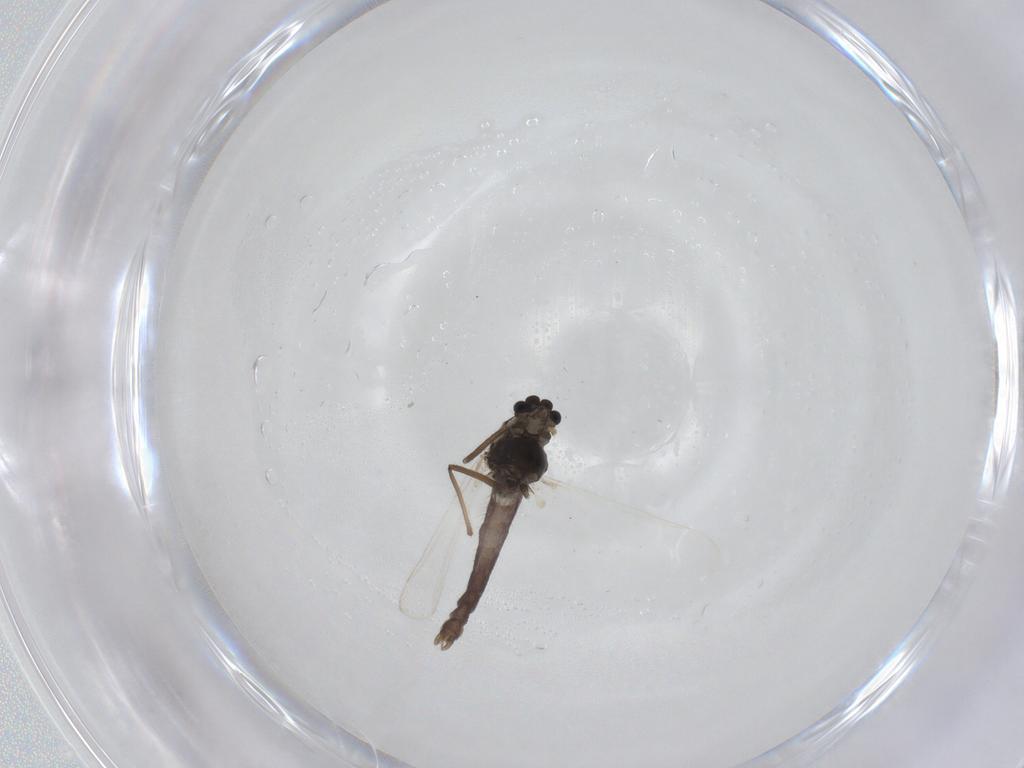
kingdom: Animalia
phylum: Arthropoda
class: Insecta
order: Diptera
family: Chironomidae
